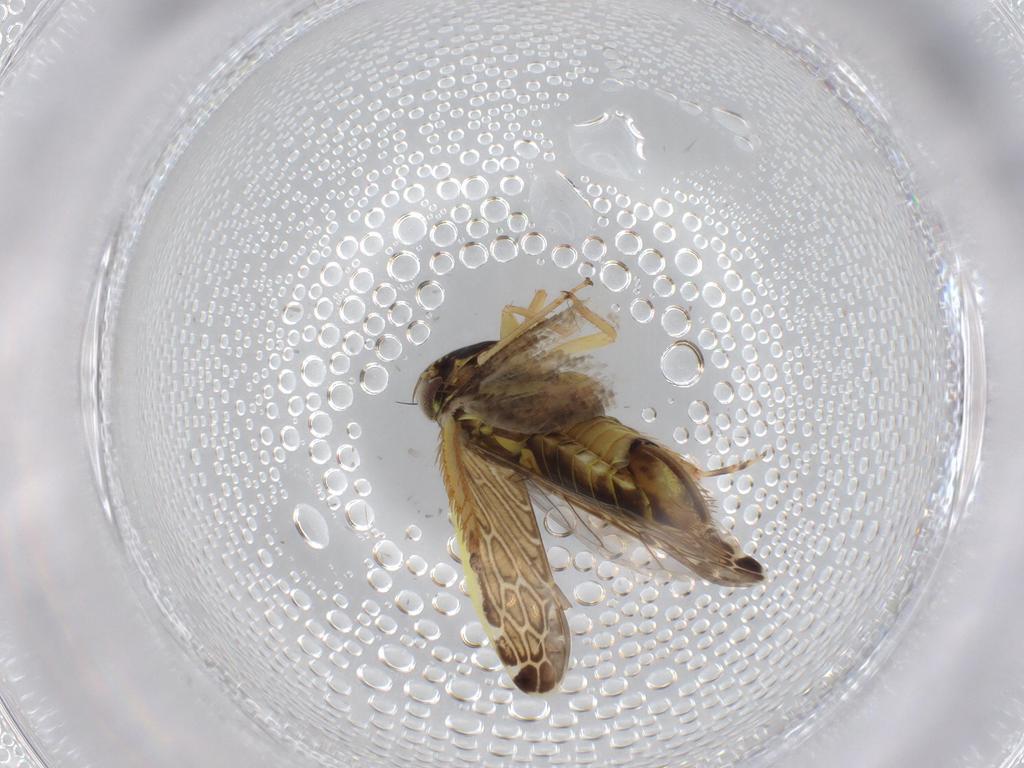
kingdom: Animalia
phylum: Arthropoda
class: Insecta
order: Hemiptera
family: Cicadellidae
